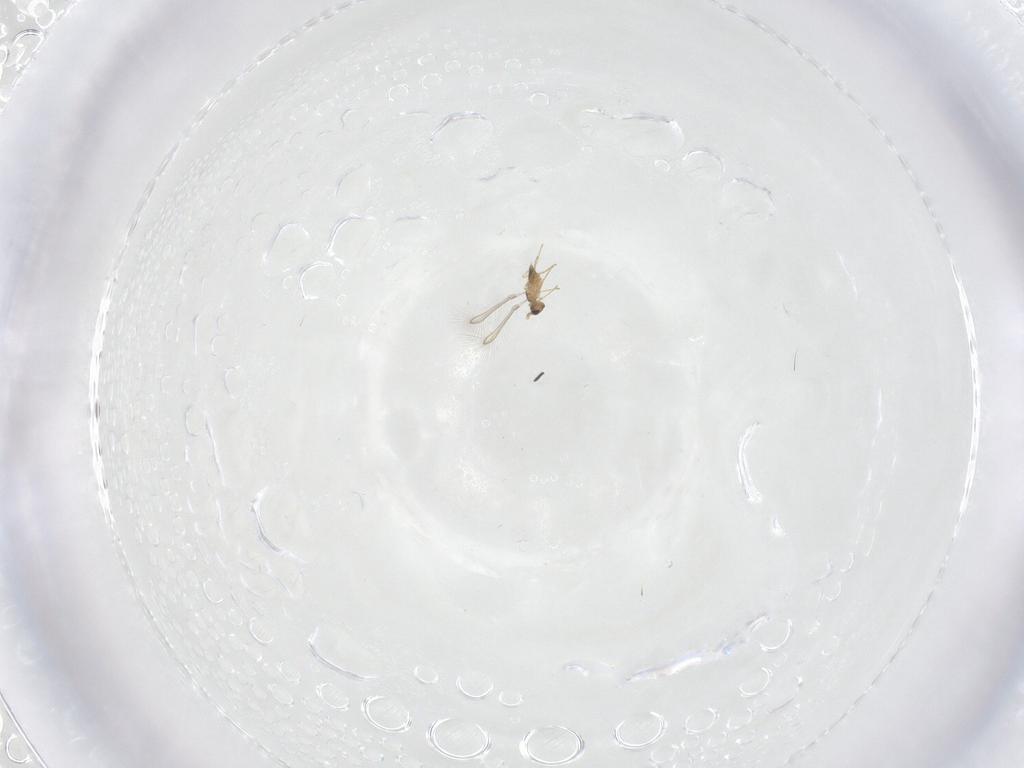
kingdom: Animalia
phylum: Arthropoda
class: Insecta
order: Hymenoptera
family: Mymaridae
